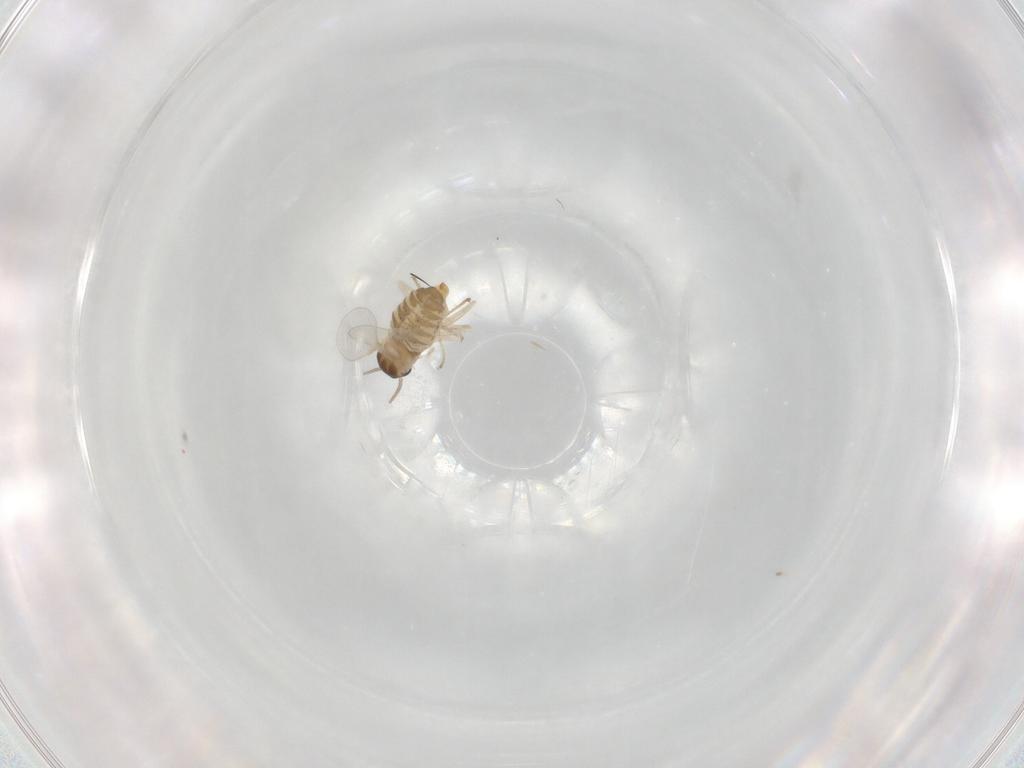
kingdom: Animalia
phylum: Arthropoda
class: Insecta
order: Diptera
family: Cecidomyiidae
